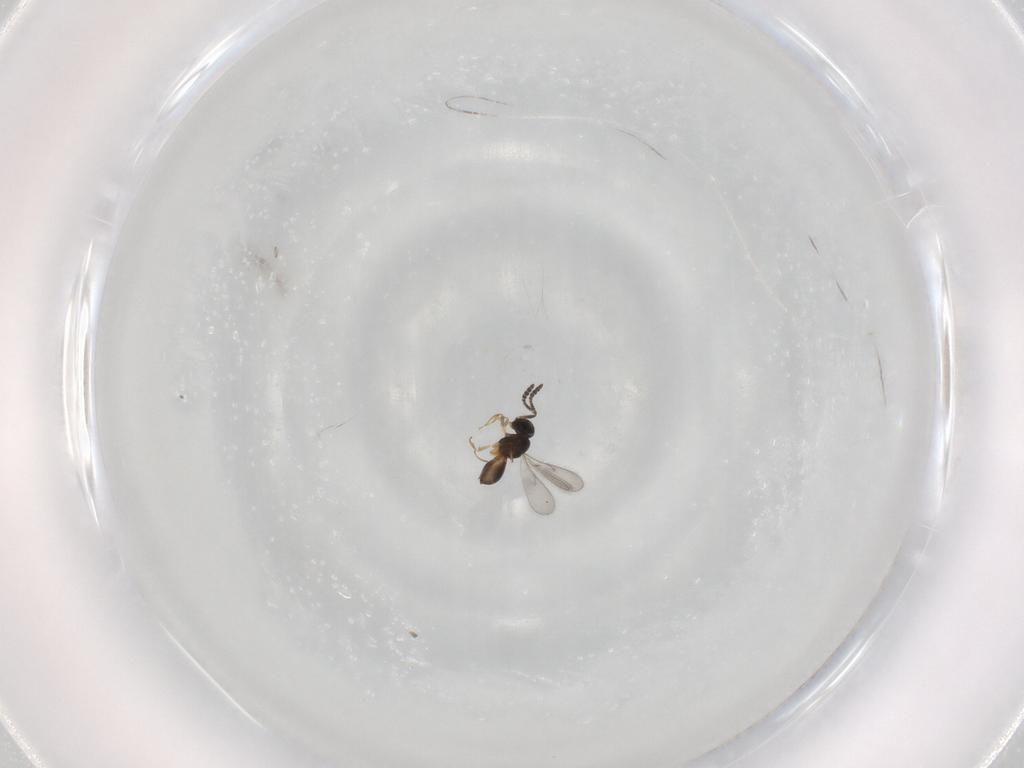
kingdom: Animalia
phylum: Arthropoda
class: Insecta
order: Hymenoptera
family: Scelionidae
